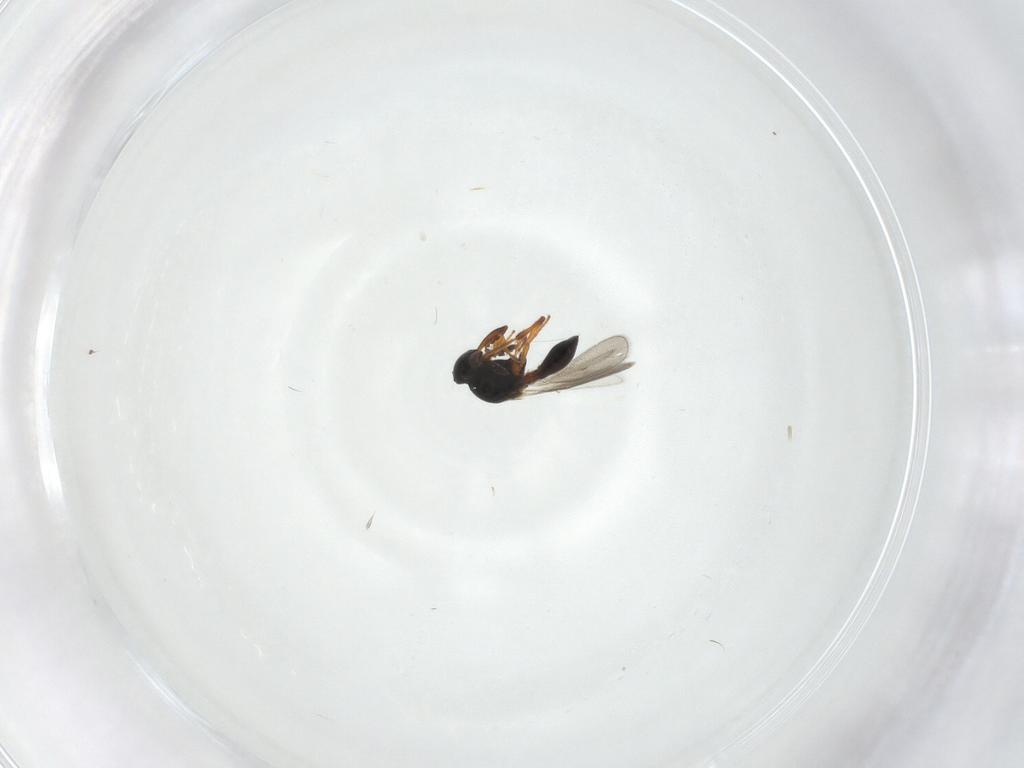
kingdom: Animalia
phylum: Arthropoda
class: Insecta
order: Hymenoptera
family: Platygastridae
